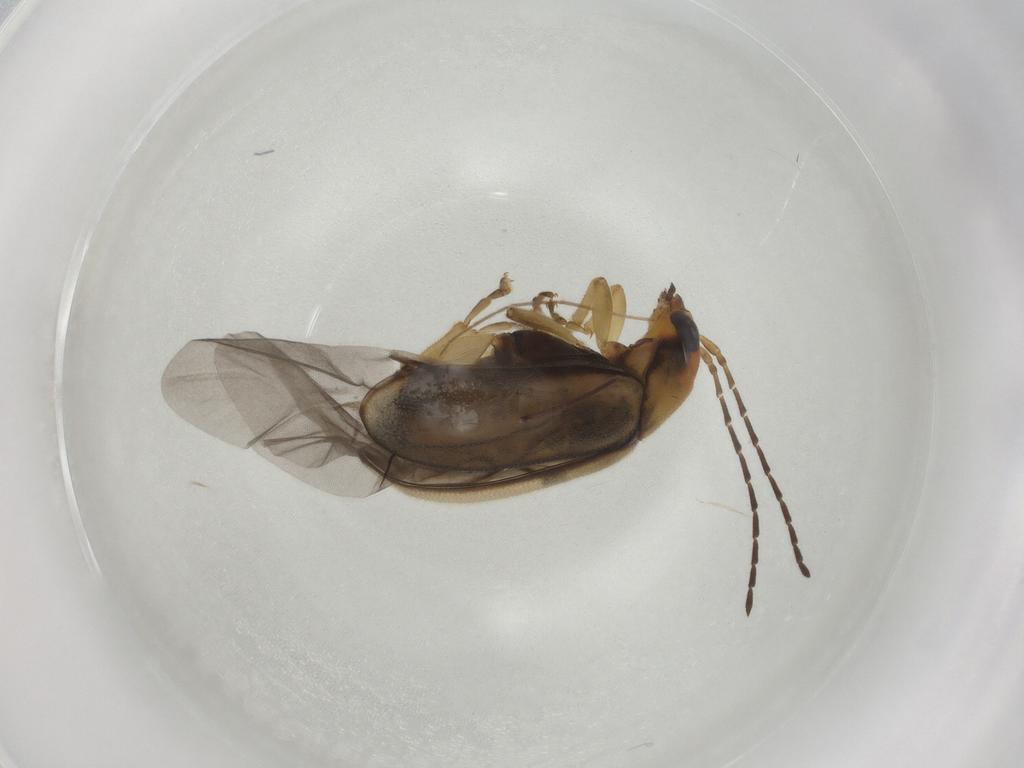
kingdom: Animalia
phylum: Arthropoda
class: Insecta
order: Coleoptera
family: Chrysomelidae
